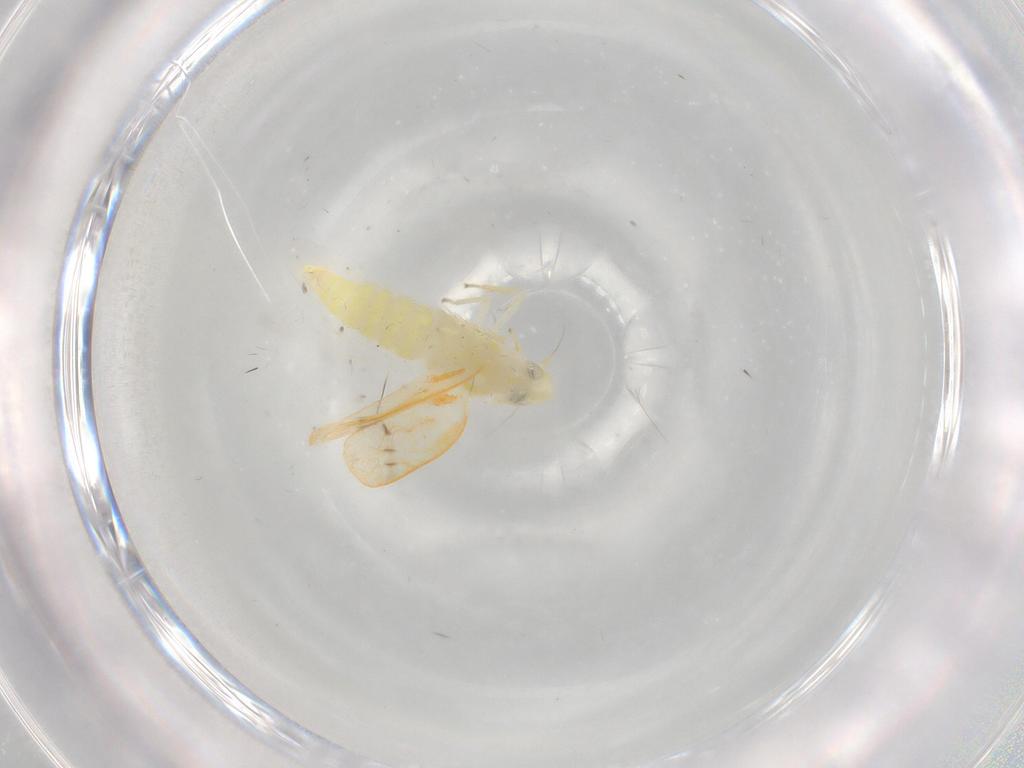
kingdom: Animalia
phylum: Arthropoda
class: Insecta
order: Hemiptera
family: Cicadellidae
